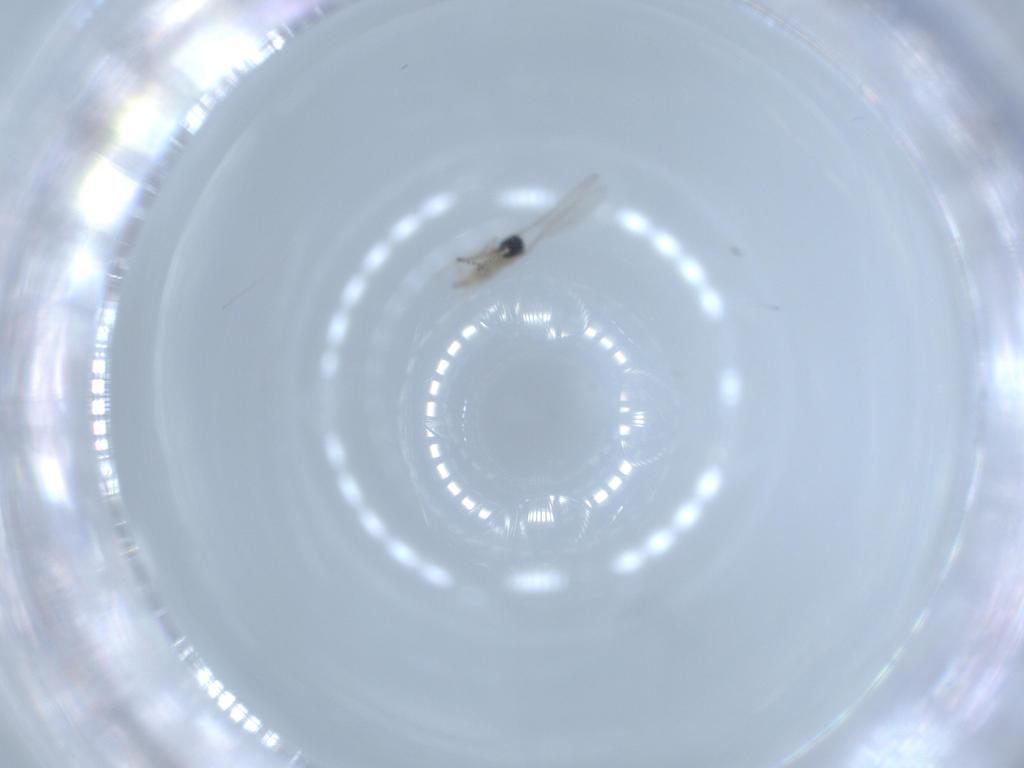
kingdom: Animalia
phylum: Arthropoda
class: Insecta
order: Diptera
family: Cecidomyiidae
